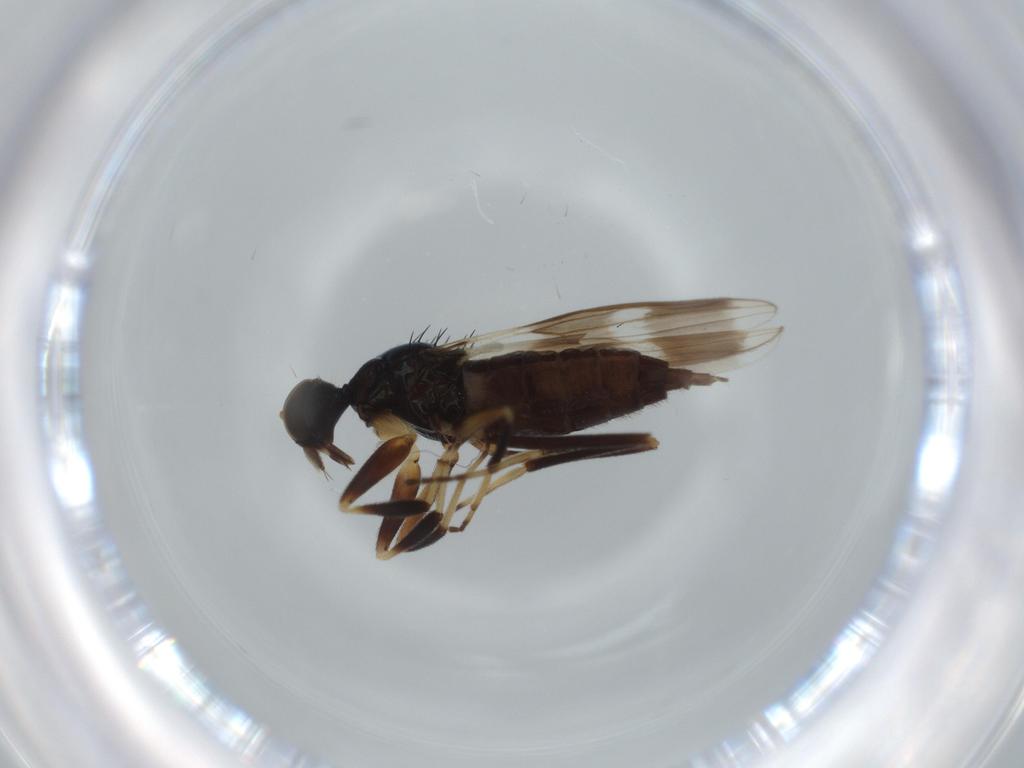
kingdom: Animalia
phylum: Arthropoda
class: Insecta
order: Diptera
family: Hybotidae
